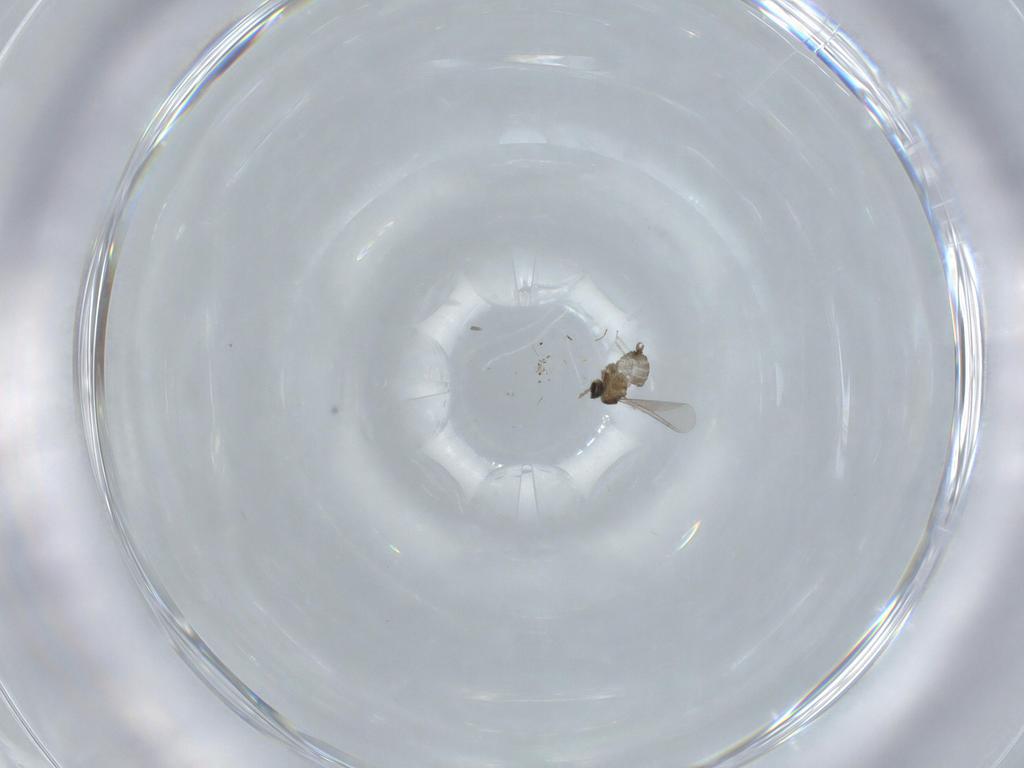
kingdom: Animalia
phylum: Arthropoda
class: Insecta
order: Diptera
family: Cecidomyiidae
